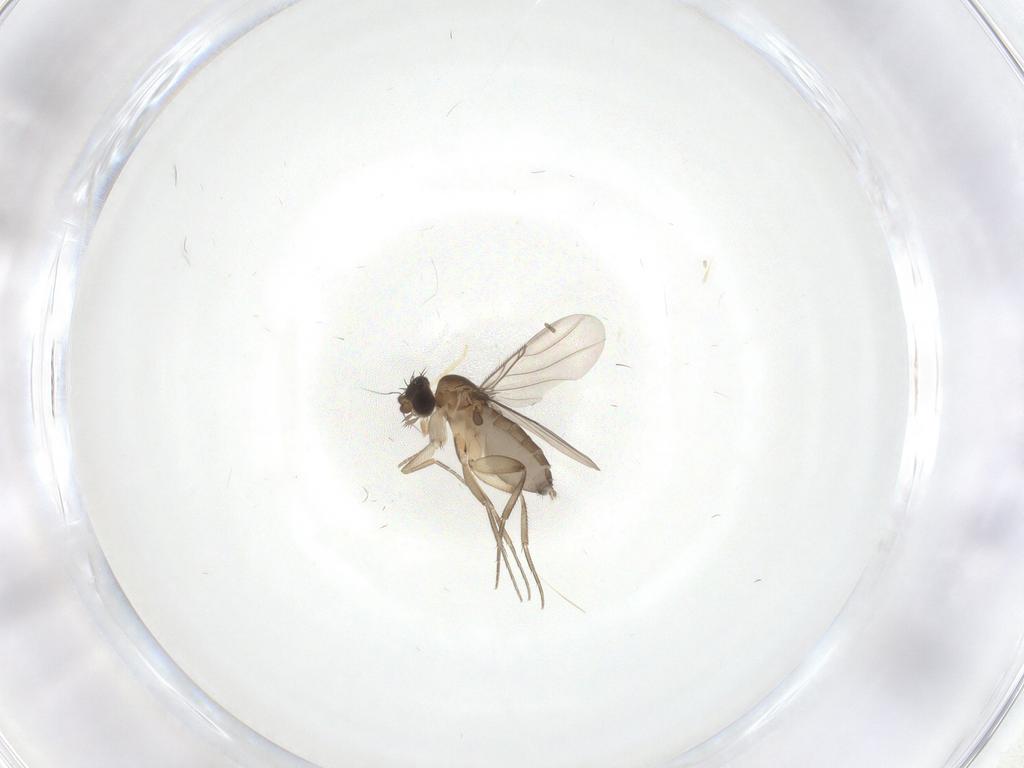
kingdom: Animalia
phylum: Arthropoda
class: Insecta
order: Diptera
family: Phoridae
